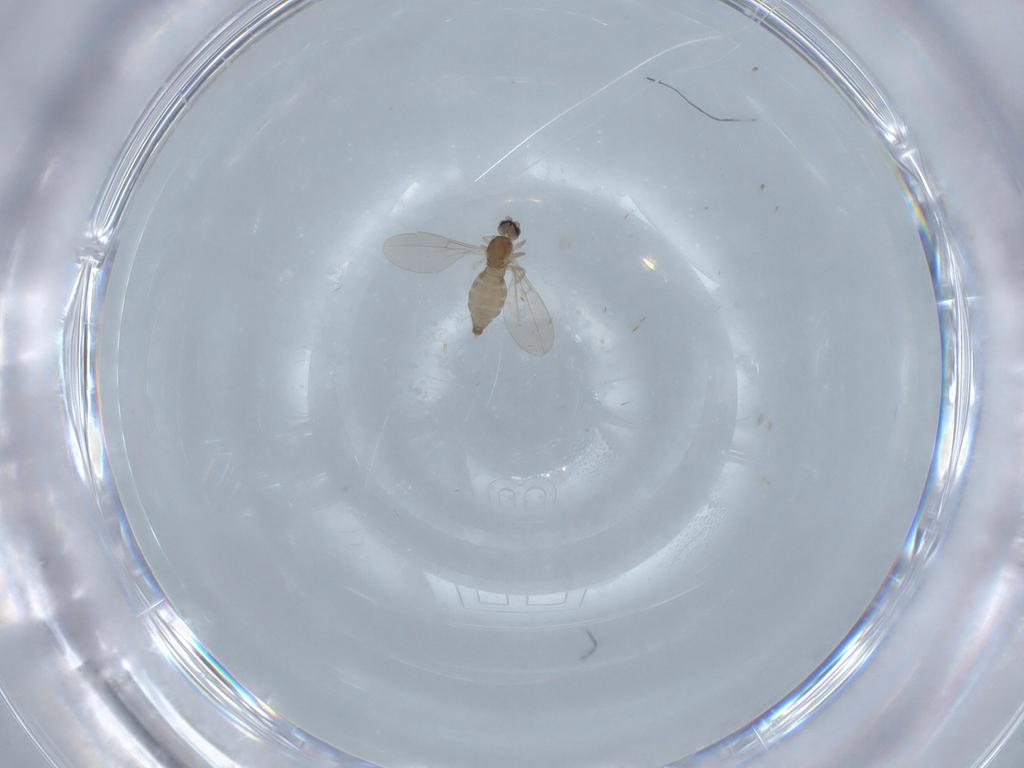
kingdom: Animalia
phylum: Arthropoda
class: Insecta
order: Diptera
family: Cecidomyiidae
